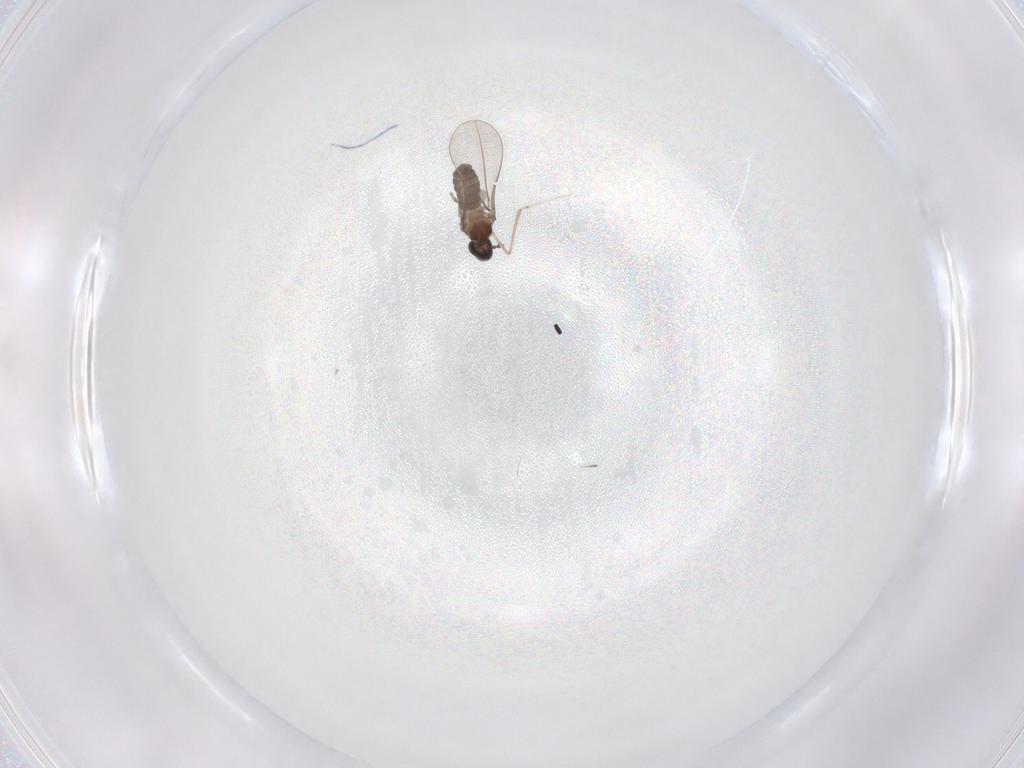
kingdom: Animalia
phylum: Arthropoda
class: Insecta
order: Diptera
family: Cecidomyiidae
